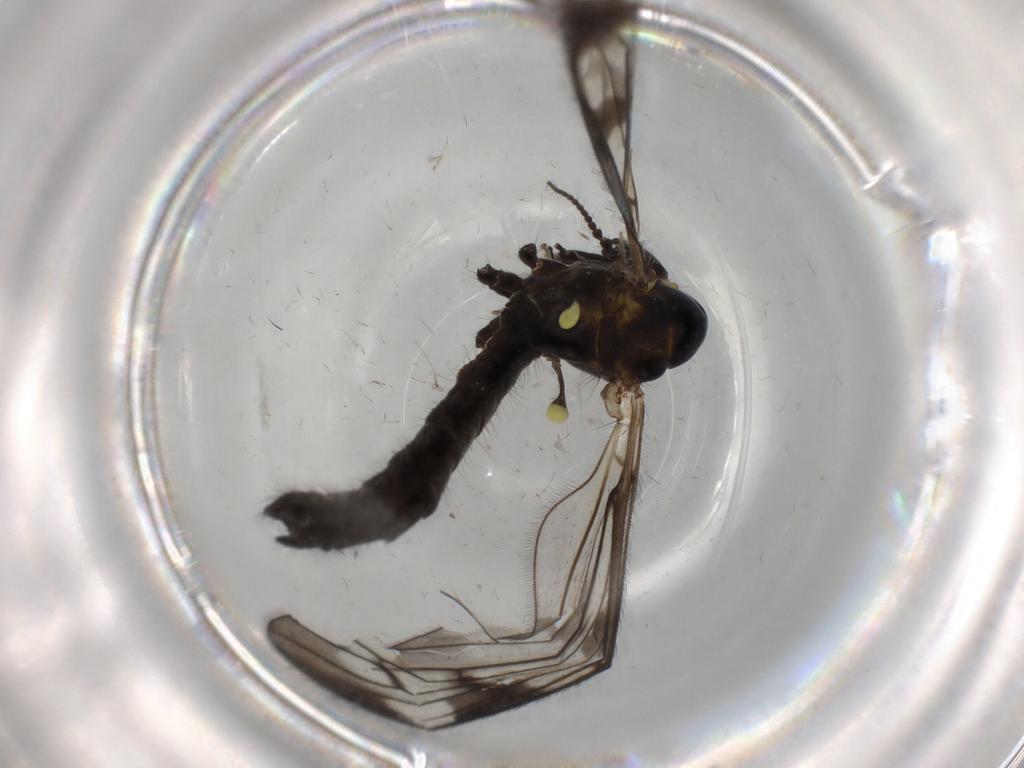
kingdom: Animalia
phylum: Arthropoda
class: Insecta
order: Diptera
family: Limoniidae
